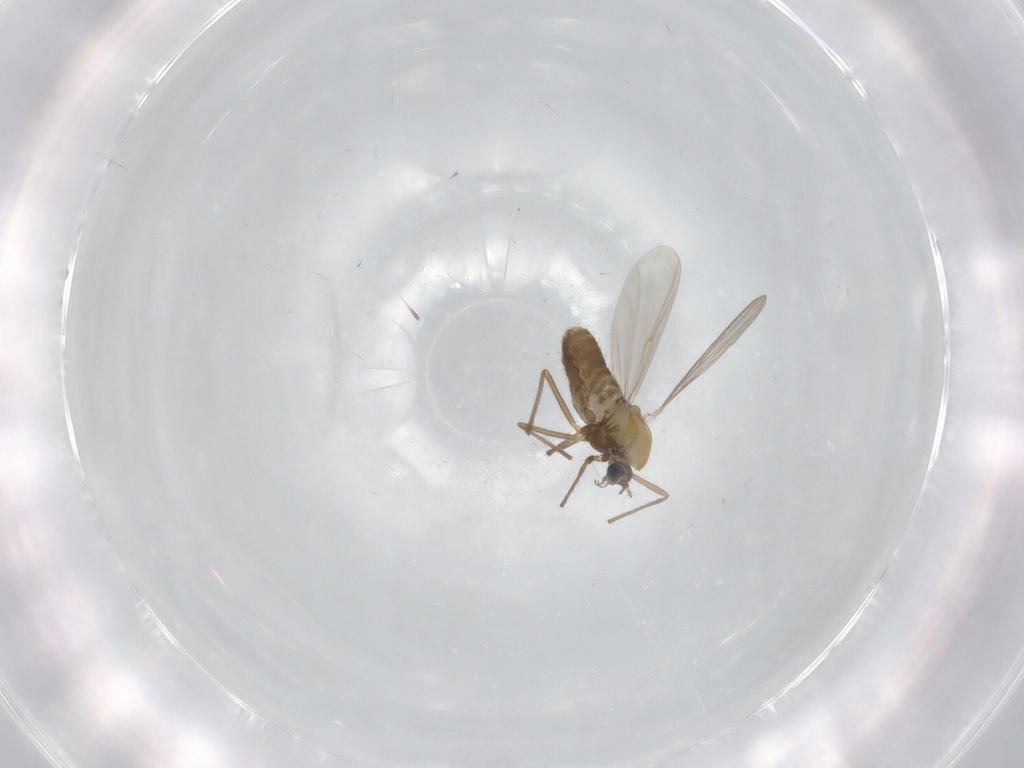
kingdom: Animalia
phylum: Arthropoda
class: Insecta
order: Diptera
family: Chironomidae
